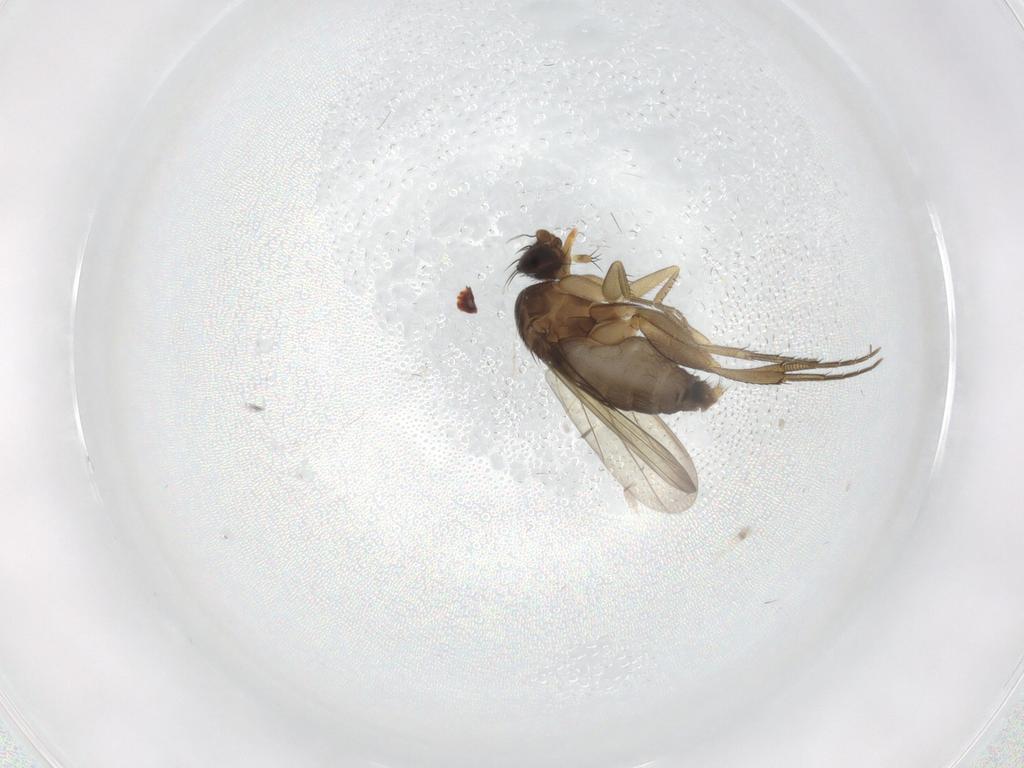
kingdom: Animalia
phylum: Arthropoda
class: Insecta
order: Diptera
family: Phoridae
